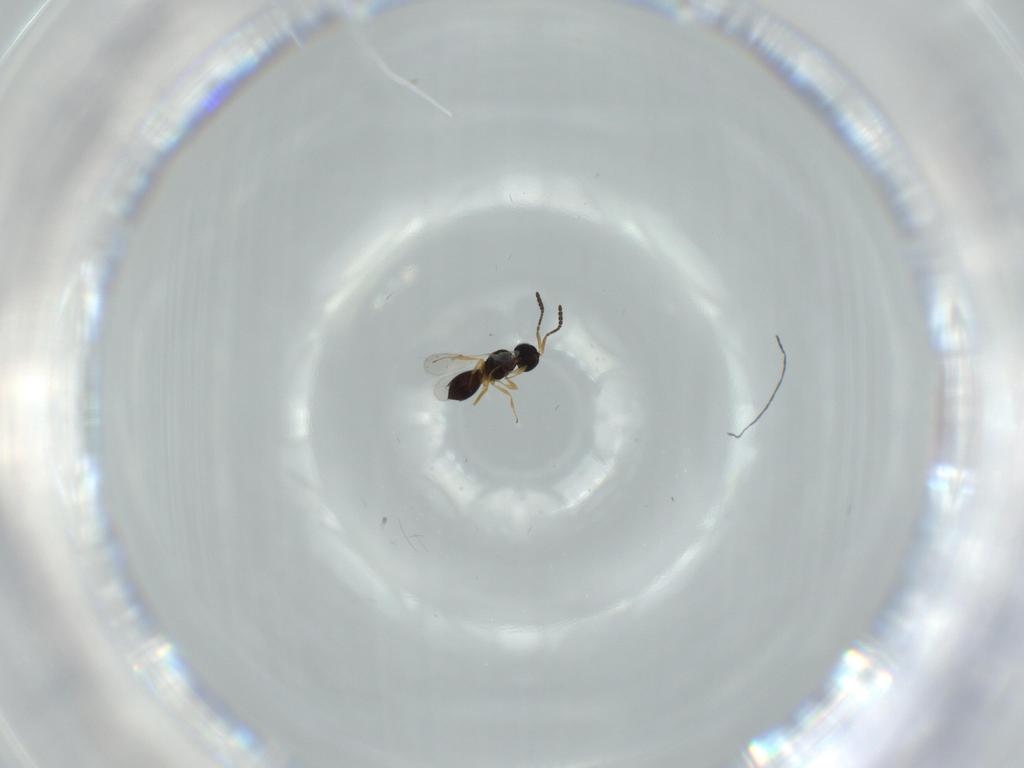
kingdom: Animalia
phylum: Arthropoda
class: Insecta
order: Hymenoptera
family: Scelionidae
